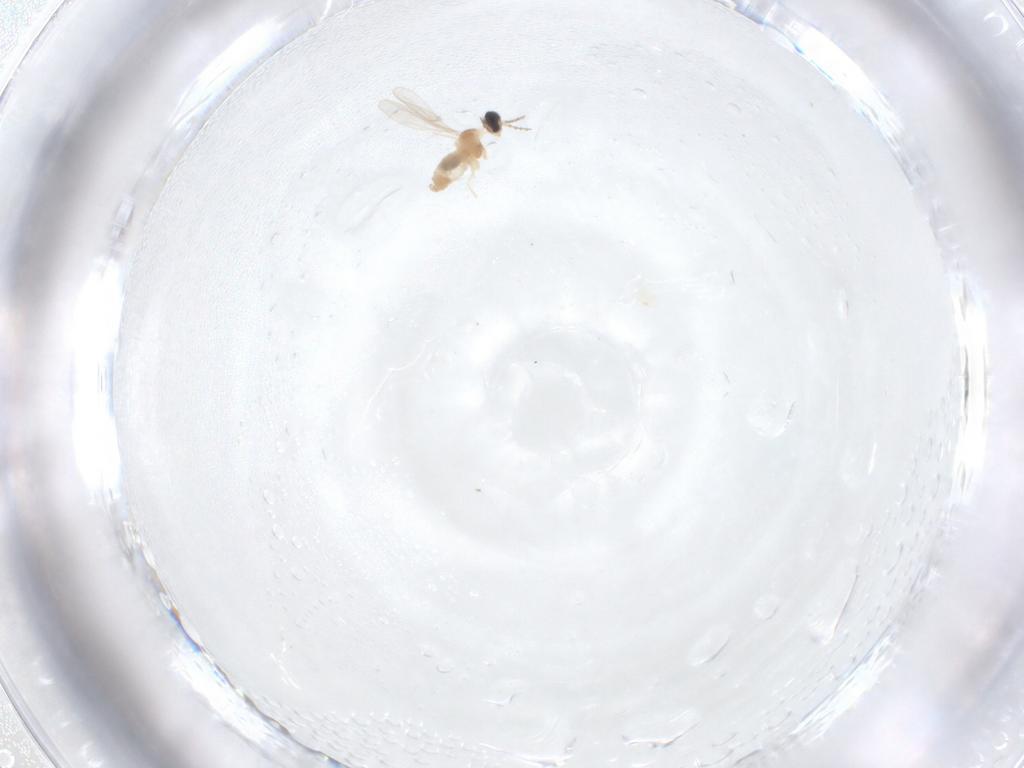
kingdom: Animalia
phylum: Arthropoda
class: Insecta
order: Diptera
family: Cecidomyiidae
